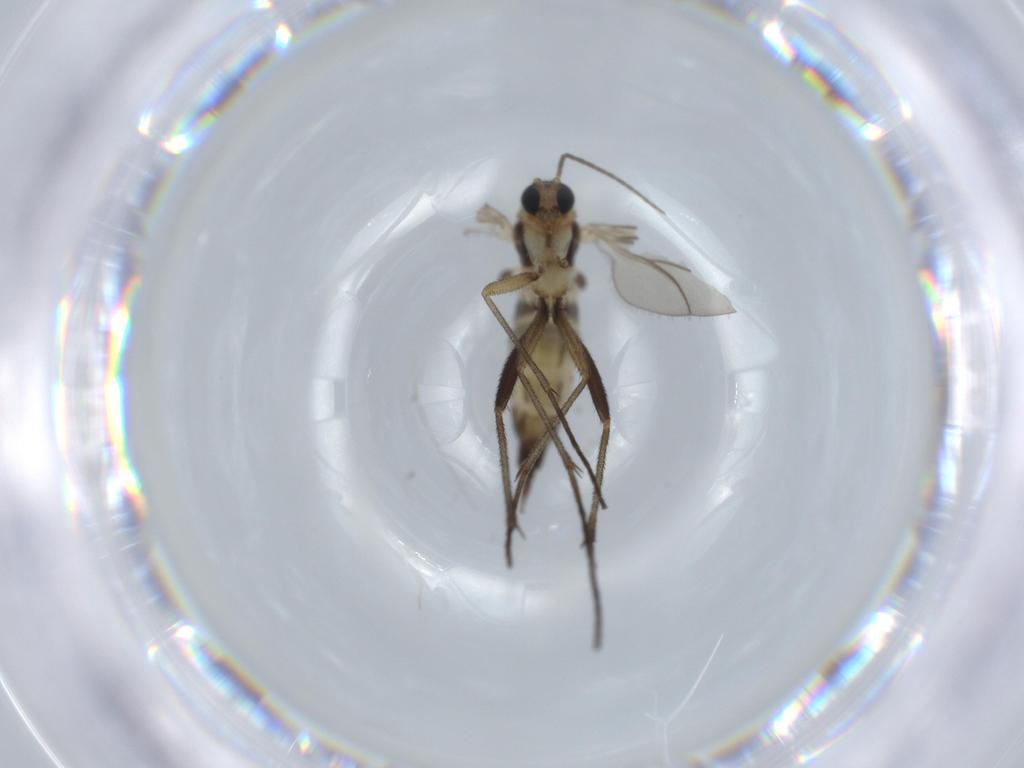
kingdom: Animalia
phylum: Arthropoda
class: Insecta
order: Diptera
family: Sciaridae
